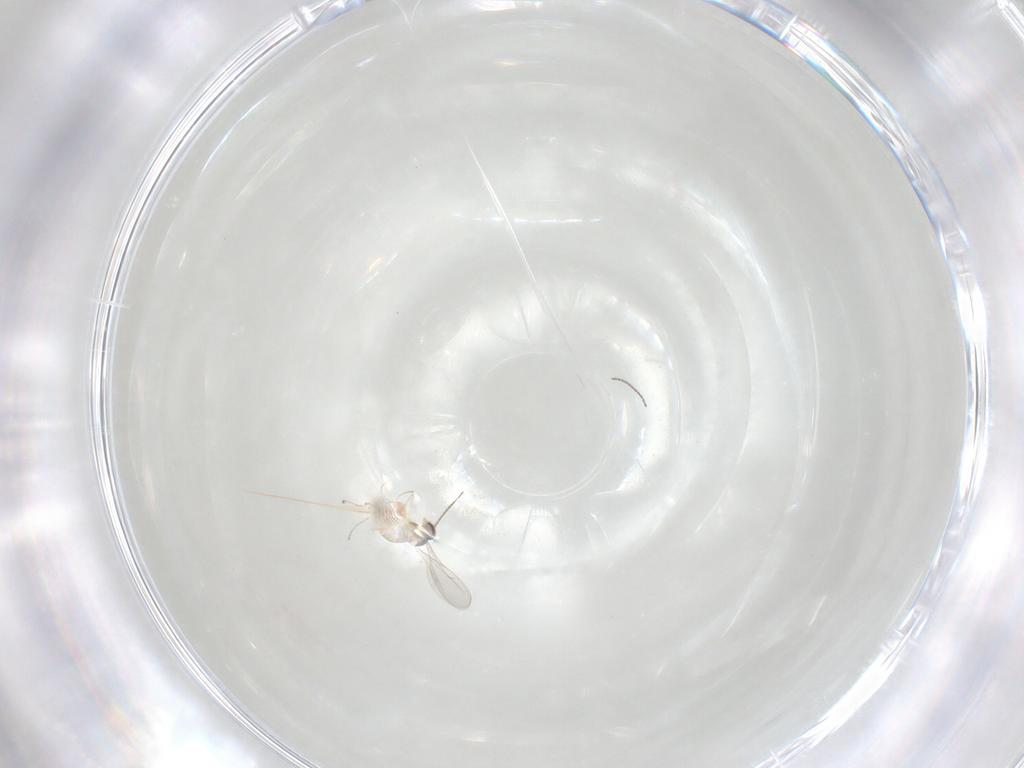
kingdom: Animalia
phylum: Arthropoda
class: Insecta
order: Diptera
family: Cecidomyiidae
